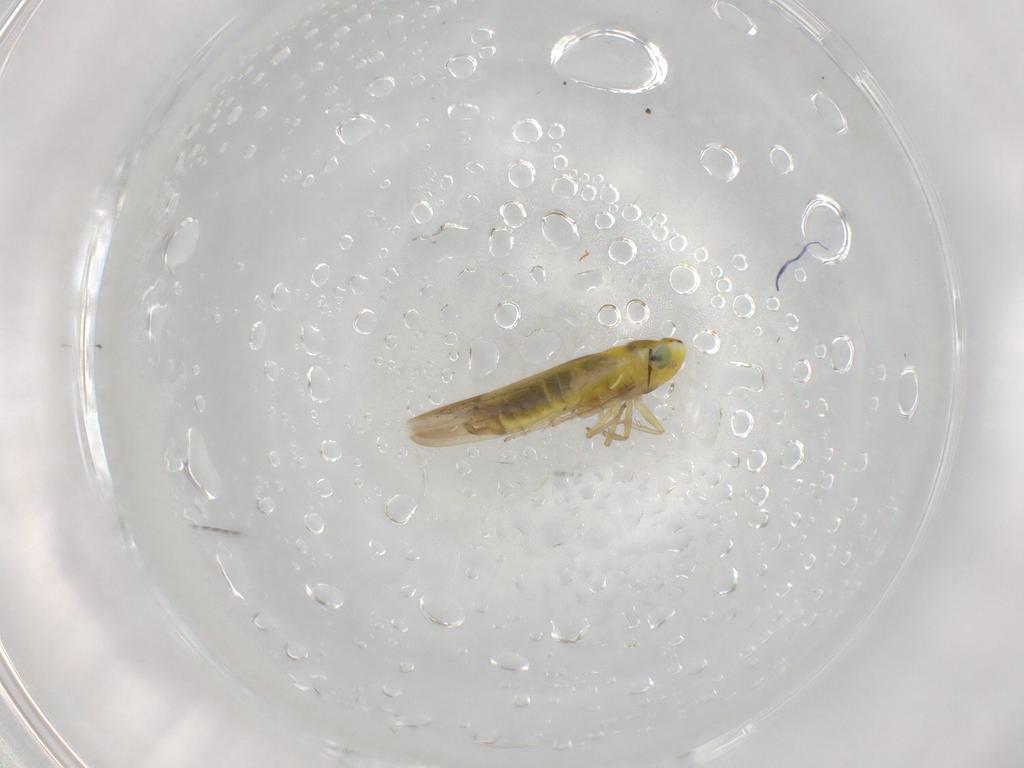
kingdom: Animalia
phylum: Arthropoda
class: Insecta
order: Hemiptera
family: Cicadellidae
